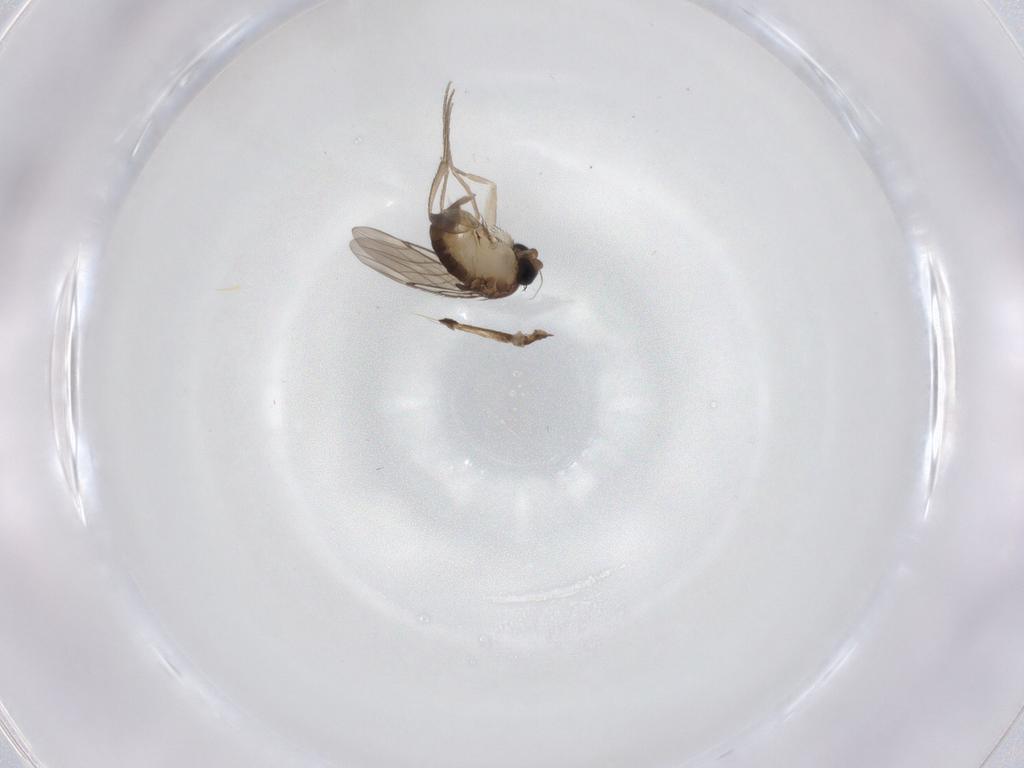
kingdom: Animalia
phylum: Arthropoda
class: Insecta
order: Diptera
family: Phoridae
